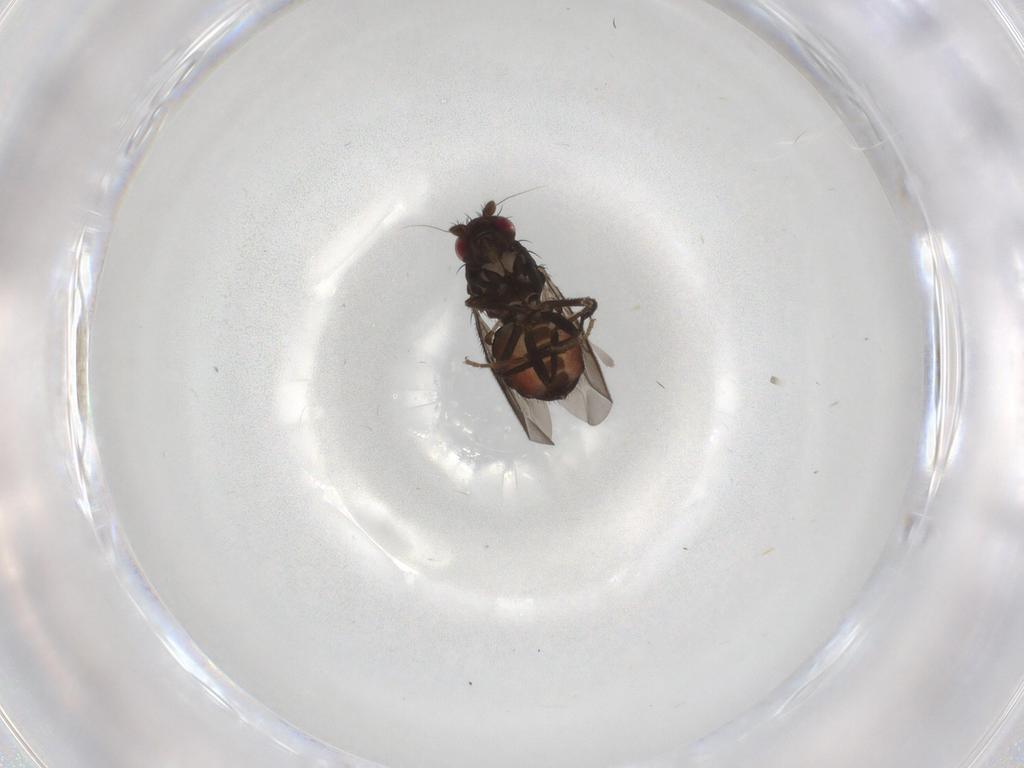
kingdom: Animalia
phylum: Arthropoda
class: Insecta
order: Diptera
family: Sphaeroceridae
